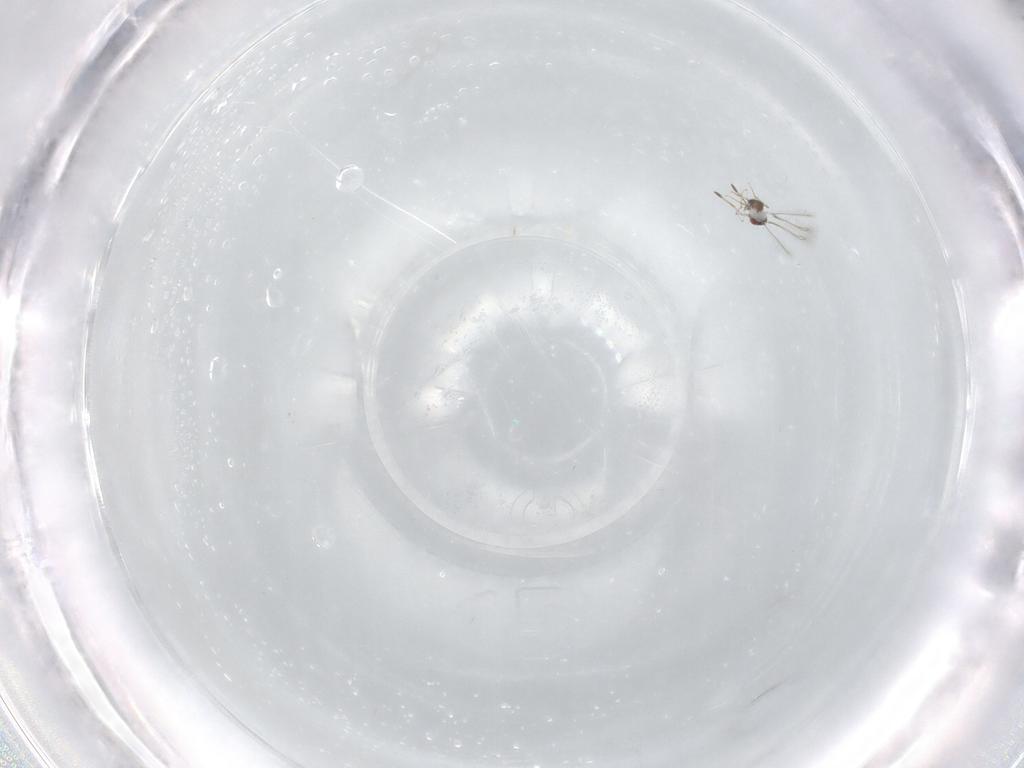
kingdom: Animalia
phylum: Arthropoda
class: Insecta
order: Hymenoptera
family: Mymaridae
